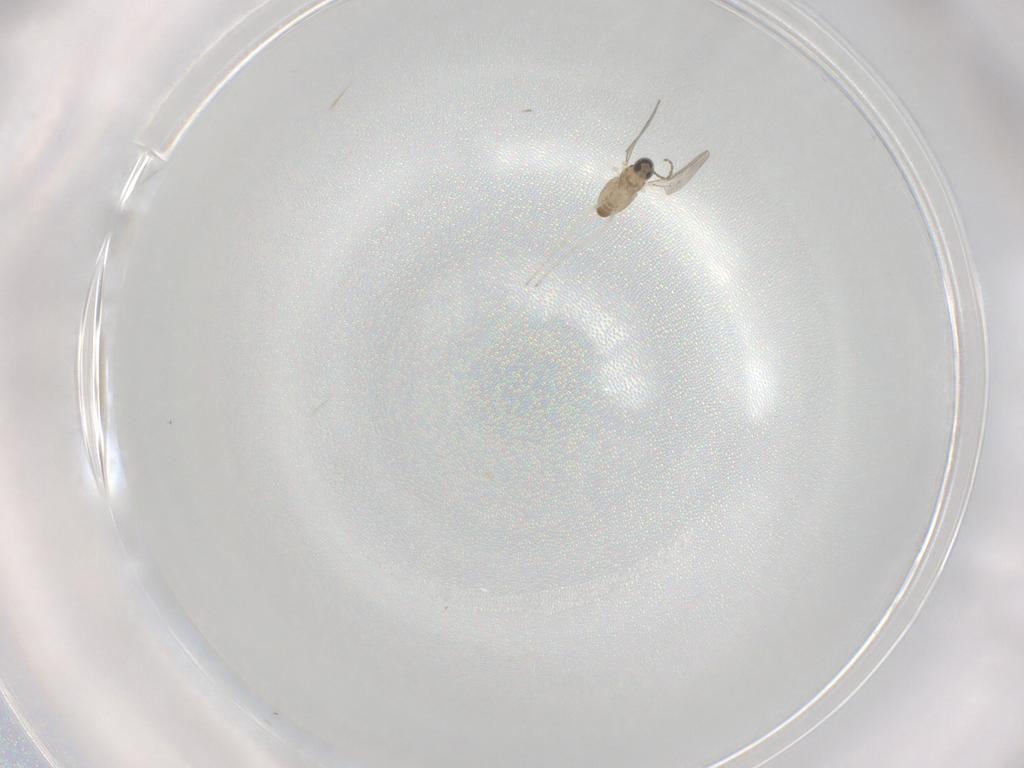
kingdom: Animalia
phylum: Arthropoda
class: Insecta
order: Diptera
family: Cecidomyiidae
